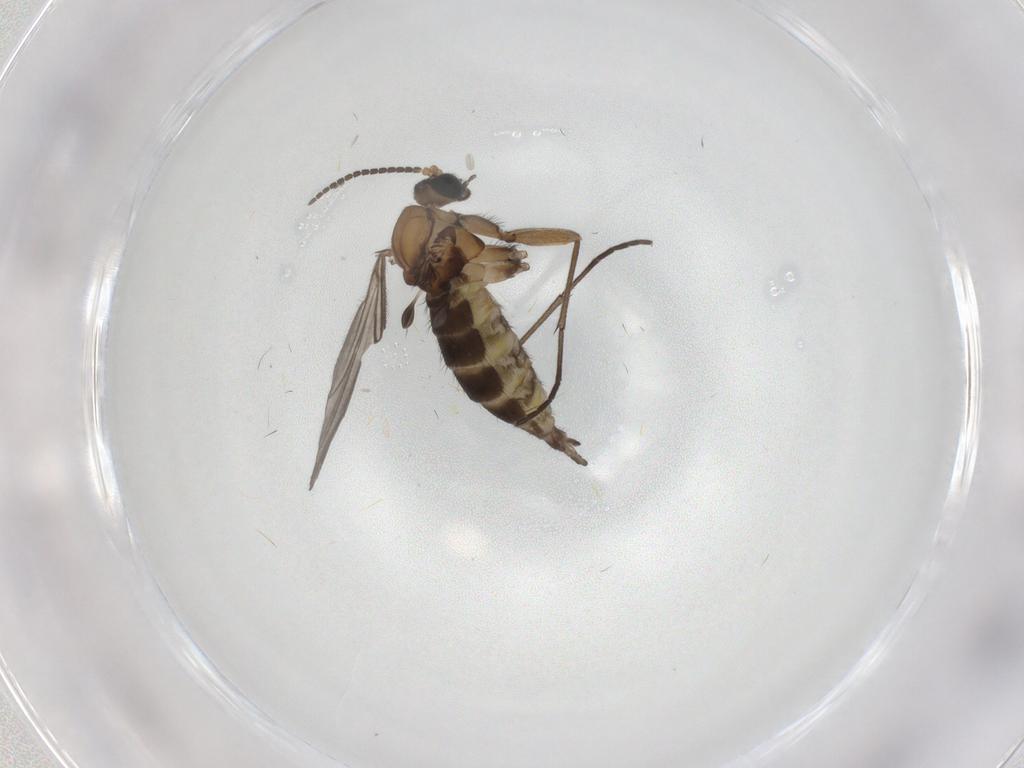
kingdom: Animalia
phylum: Arthropoda
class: Insecta
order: Diptera
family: Sciaridae
